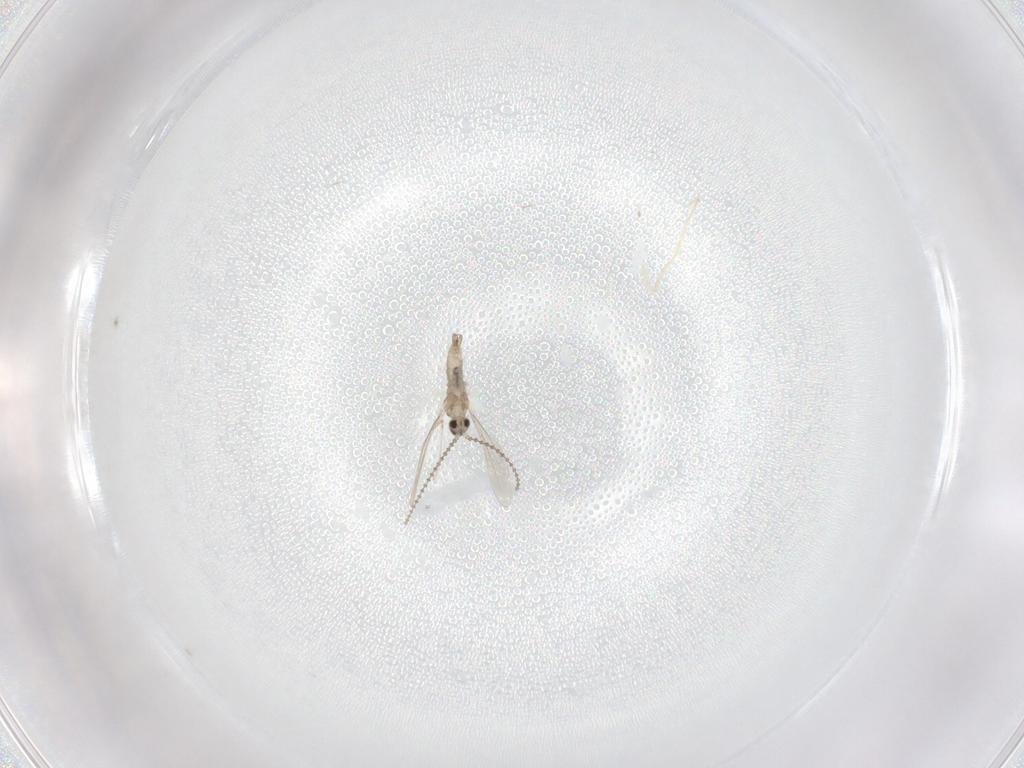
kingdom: Animalia
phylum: Arthropoda
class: Insecta
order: Diptera
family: Cecidomyiidae
